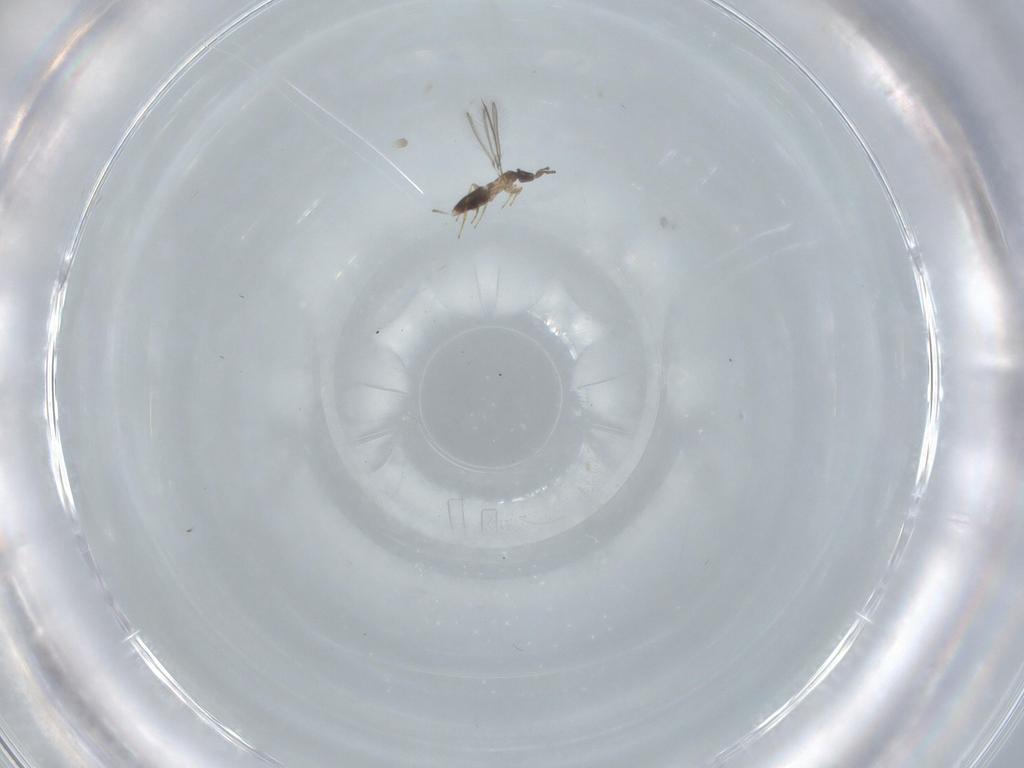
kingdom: Animalia
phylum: Arthropoda
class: Insecta
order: Hymenoptera
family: Mymaridae
